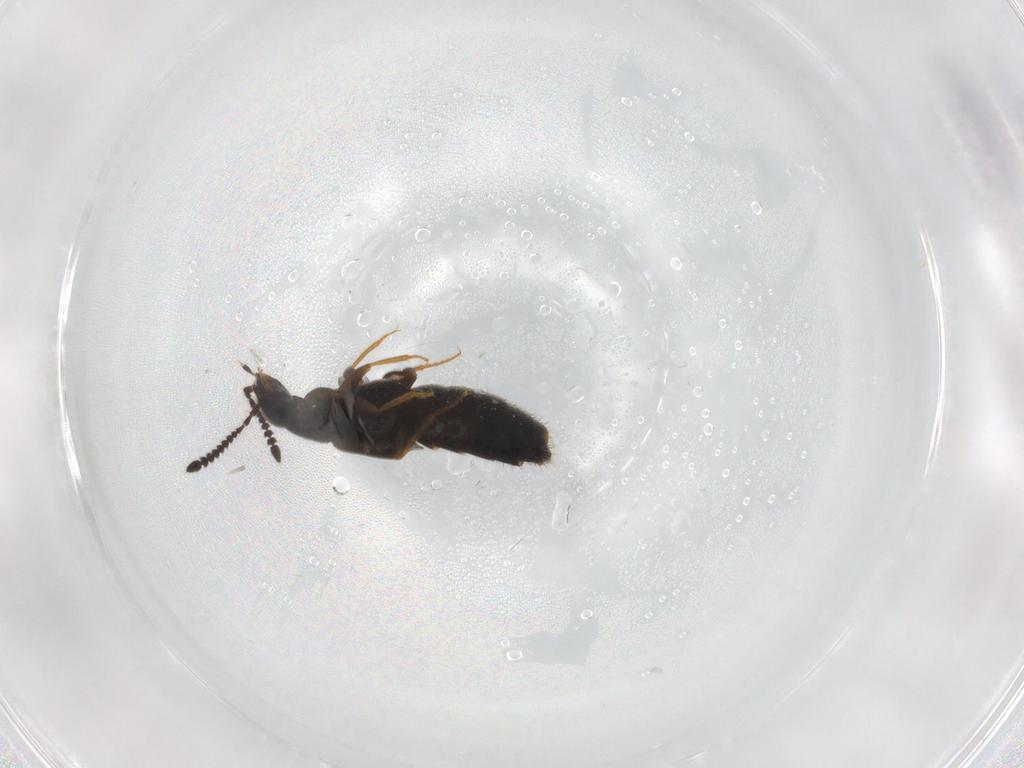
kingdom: Animalia
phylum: Arthropoda
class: Insecta
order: Coleoptera
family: Staphylinidae
